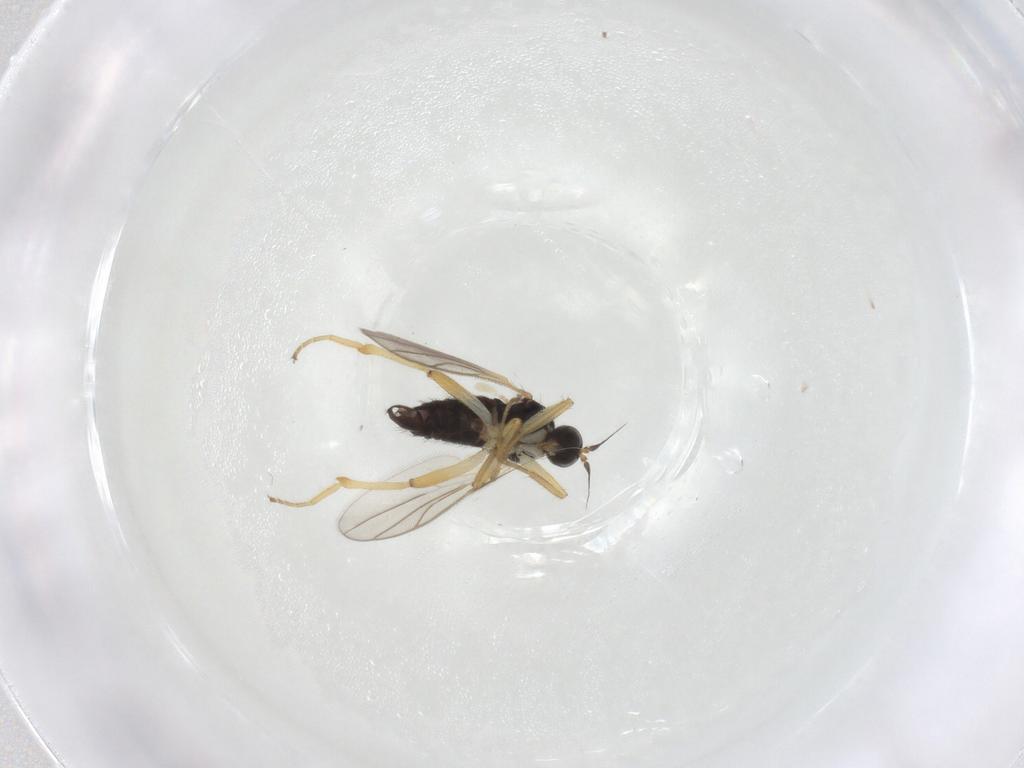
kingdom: Animalia
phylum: Arthropoda
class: Insecta
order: Diptera
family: Hybotidae
